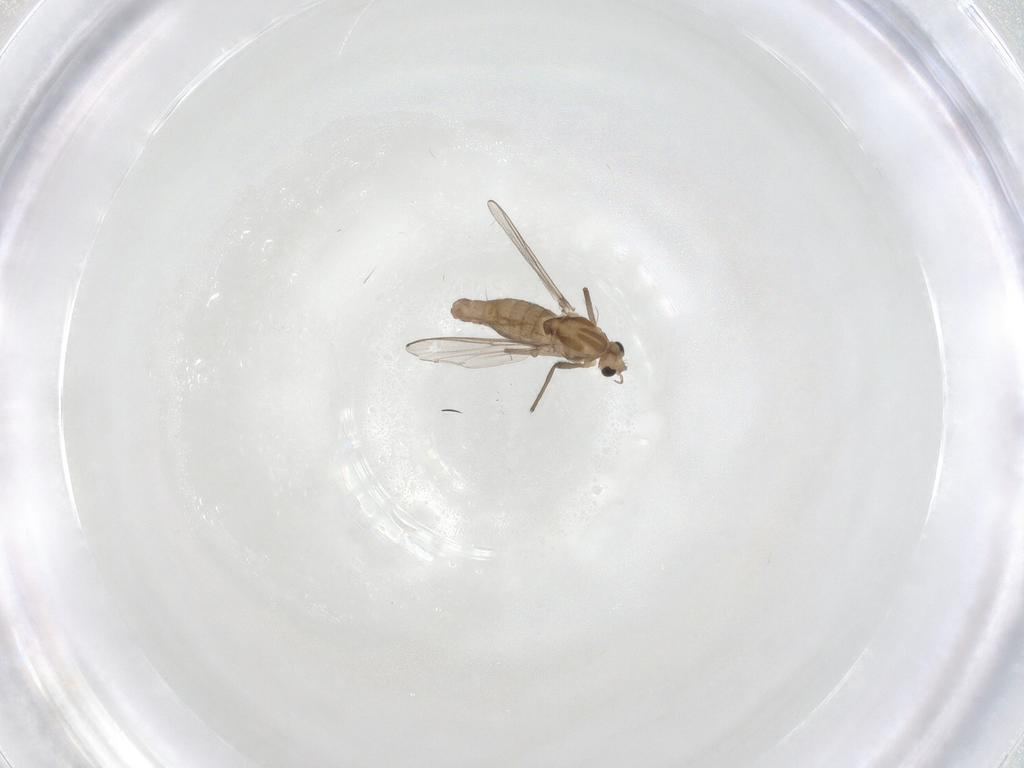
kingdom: Animalia
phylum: Arthropoda
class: Insecta
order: Diptera
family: Chironomidae
